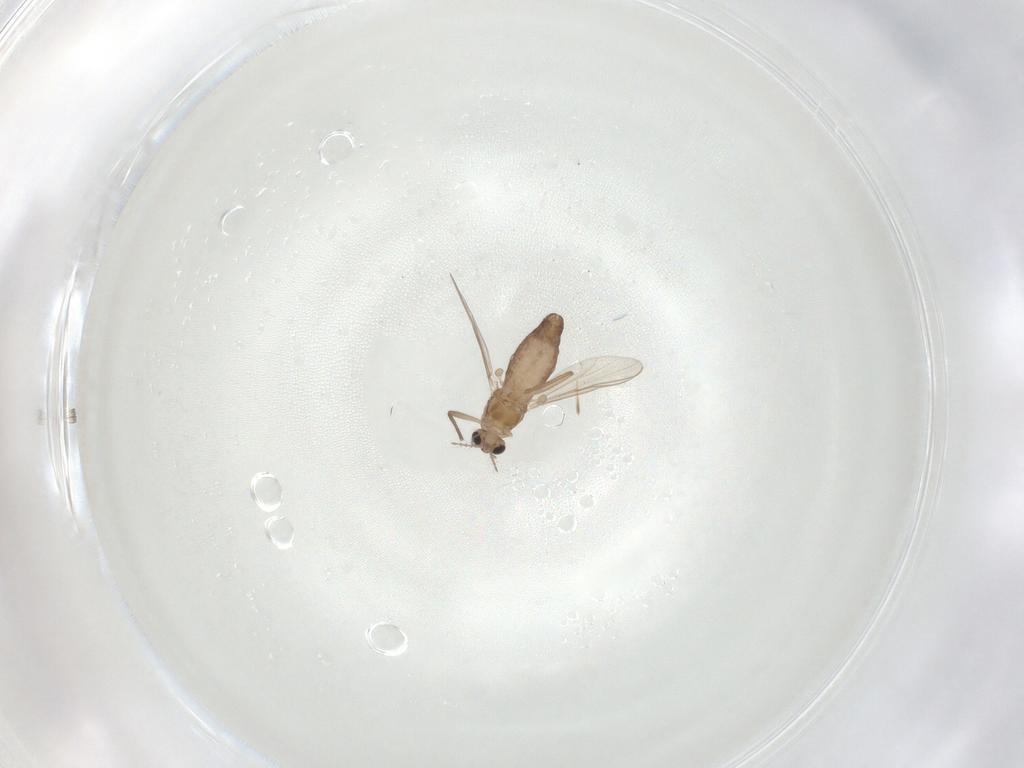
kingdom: Animalia
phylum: Arthropoda
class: Insecta
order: Diptera
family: Chironomidae
